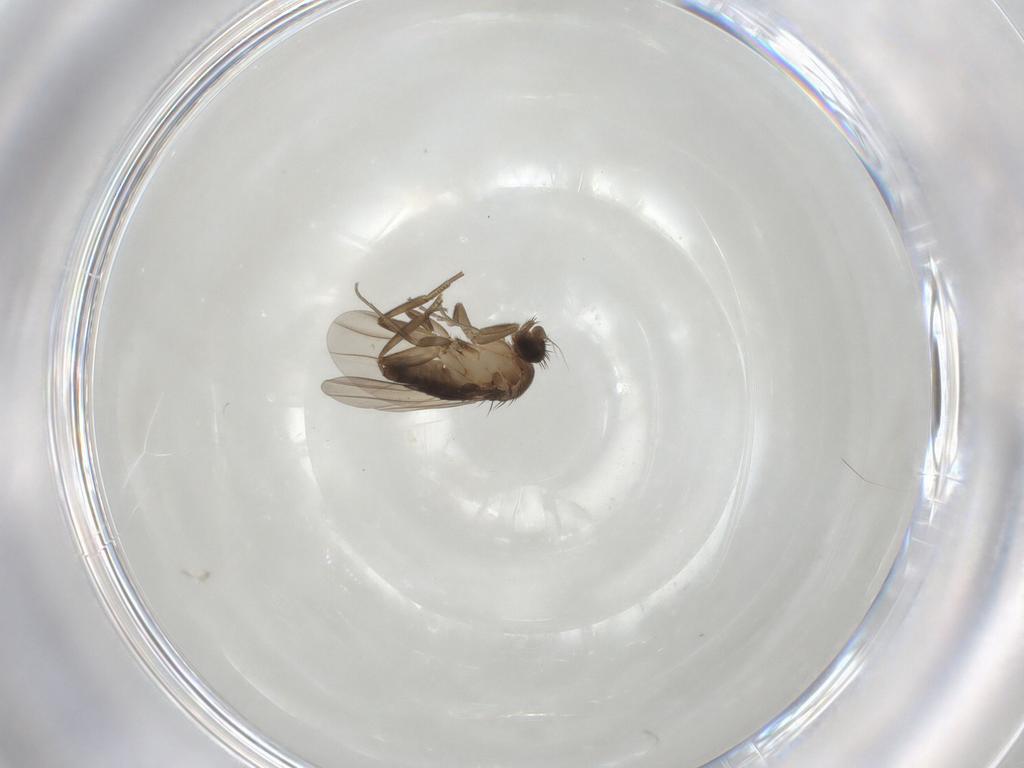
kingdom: Animalia
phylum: Arthropoda
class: Insecta
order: Diptera
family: Phoridae
